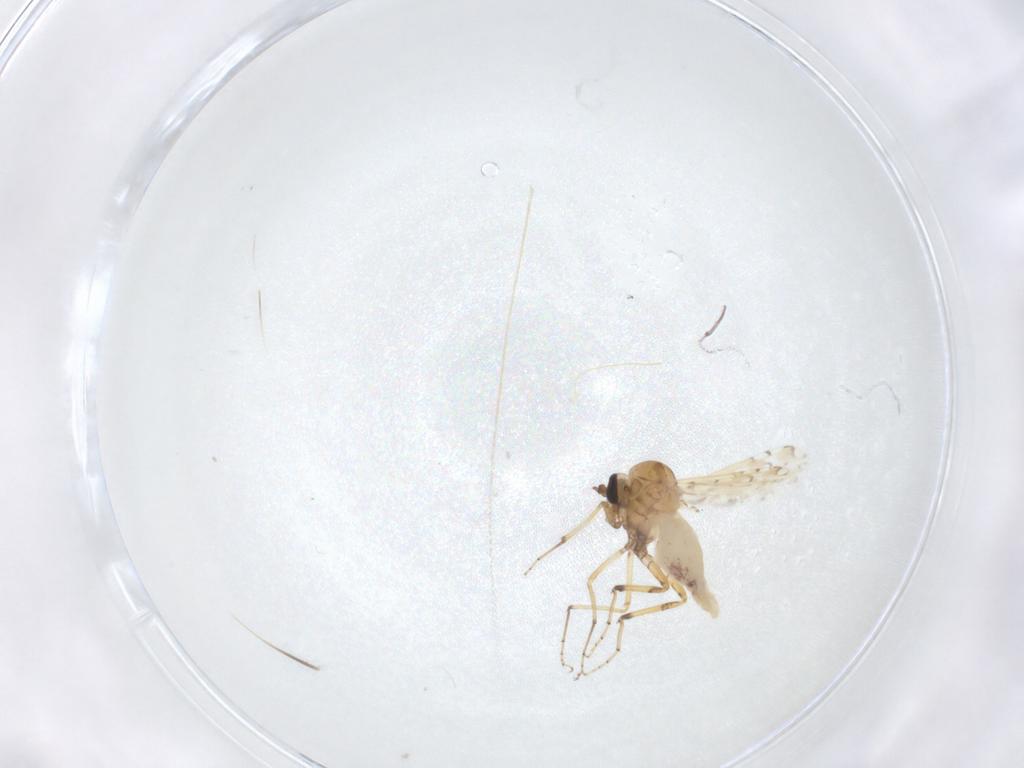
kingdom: Animalia
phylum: Arthropoda
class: Insecta
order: Diptera
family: Ceratopogonidae
